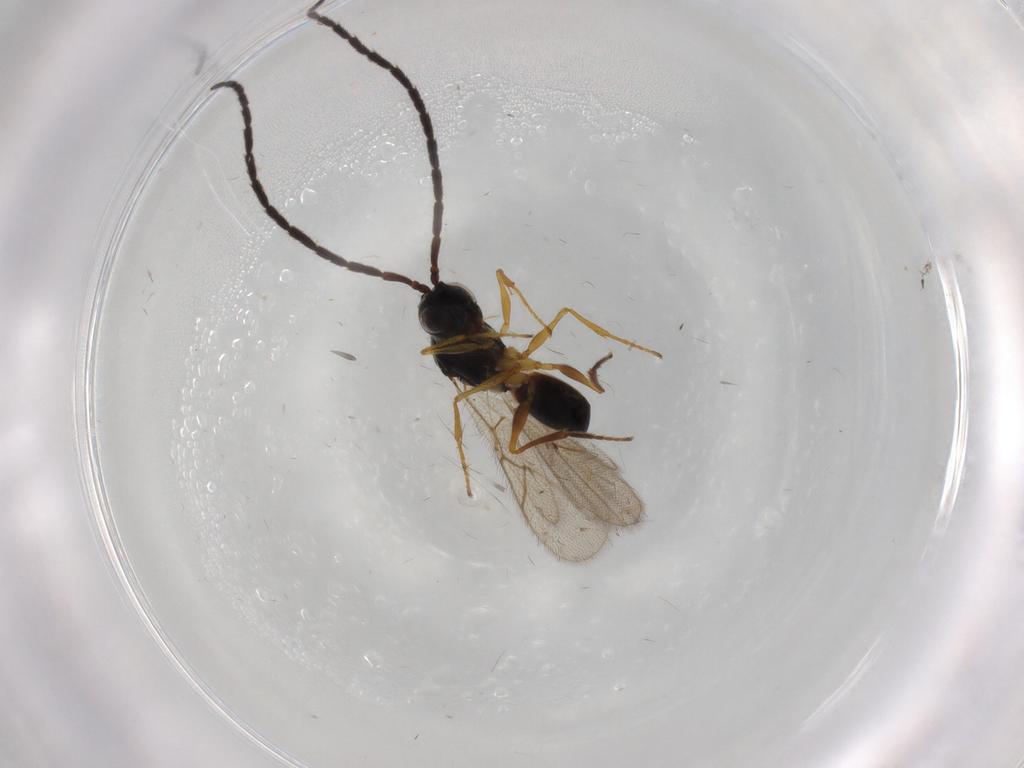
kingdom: Animalia
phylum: Arthropoda
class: Insecta
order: Hymenoptera
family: Figitidae
